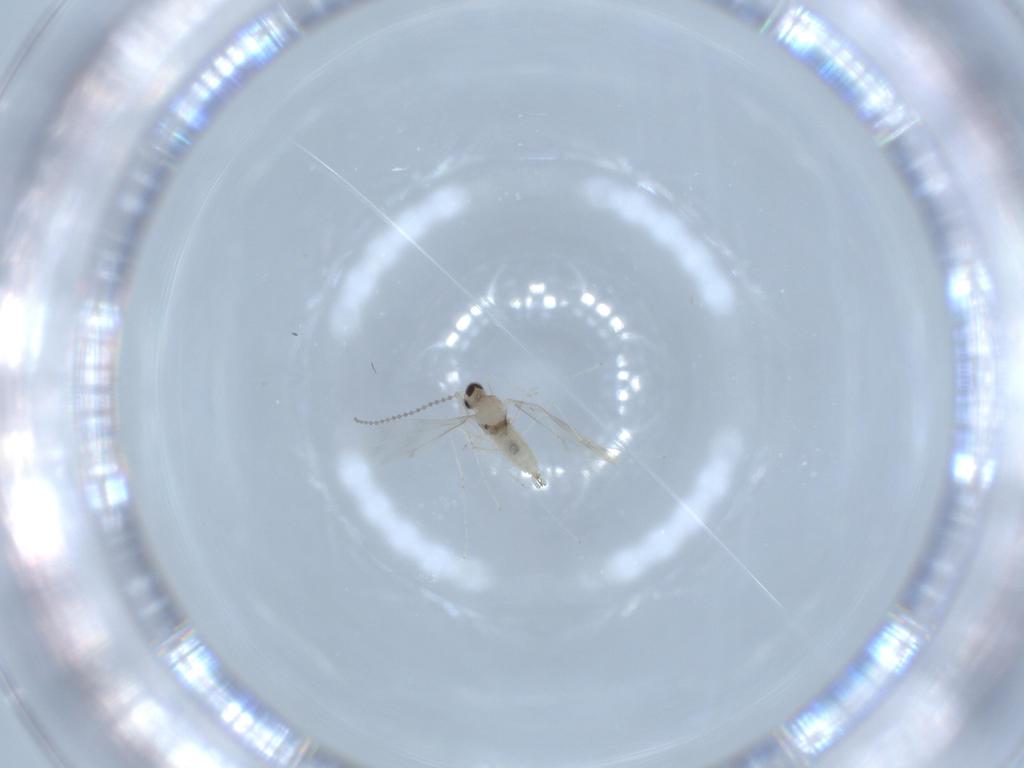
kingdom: Animalia
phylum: Arthropoda
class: Insecta
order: Diptera
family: Cecidomyiidae
